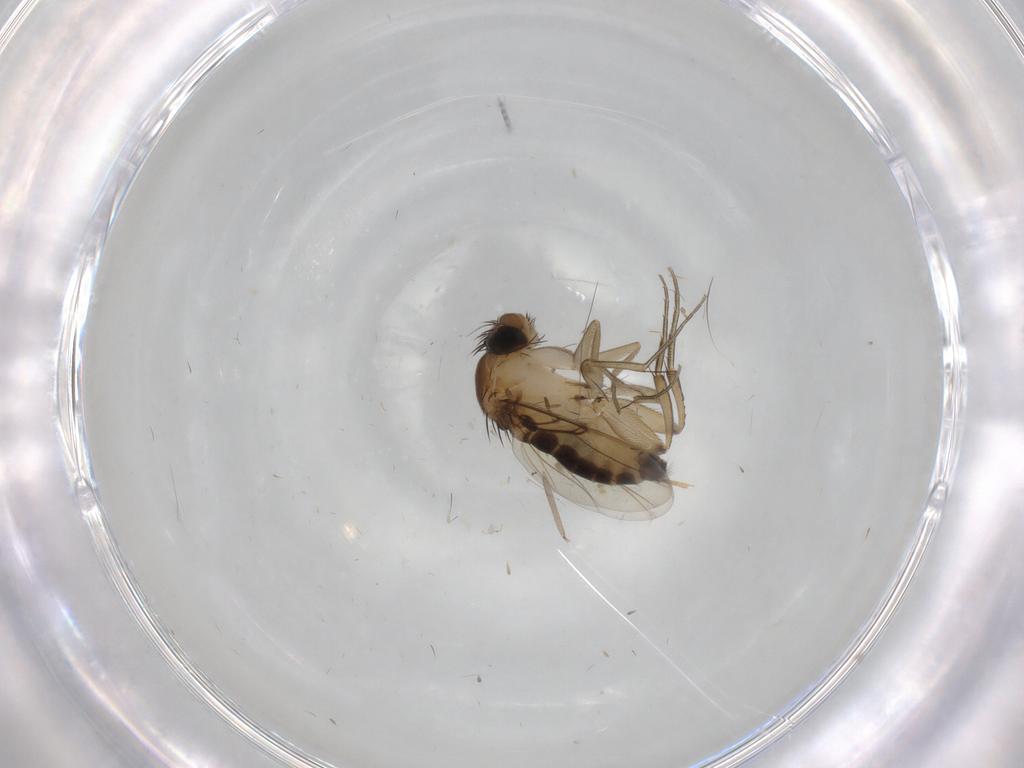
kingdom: Animalia
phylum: Arthropoda
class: Insecta
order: Diptera
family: Ceratopogonidae
